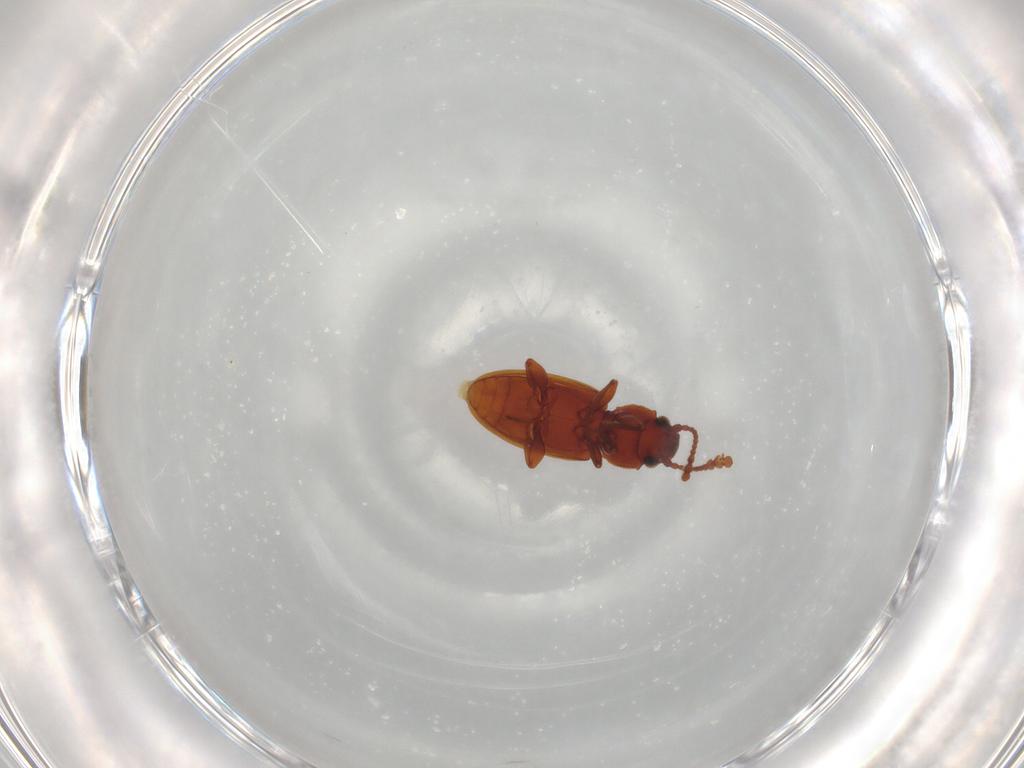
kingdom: Animalia
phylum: Arthropoda
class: Insecta
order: Coleoptera
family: Silvanidae
